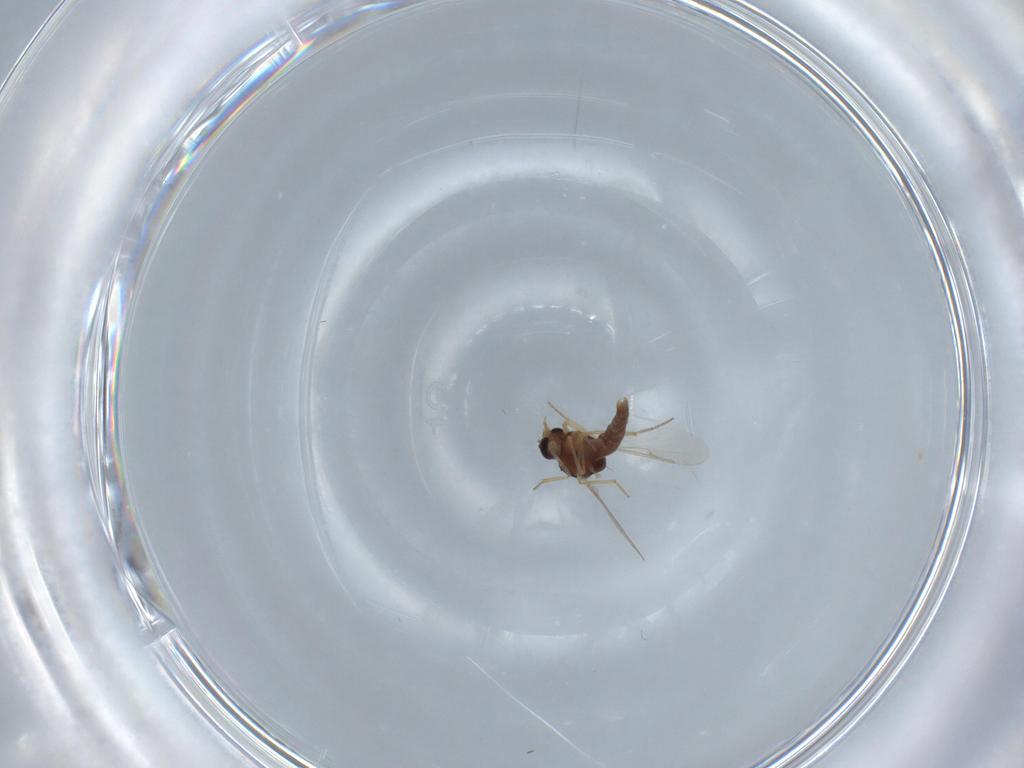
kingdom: Animalia
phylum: Arthropoda
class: Insecta
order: Diptera
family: Ceratopogonidae
